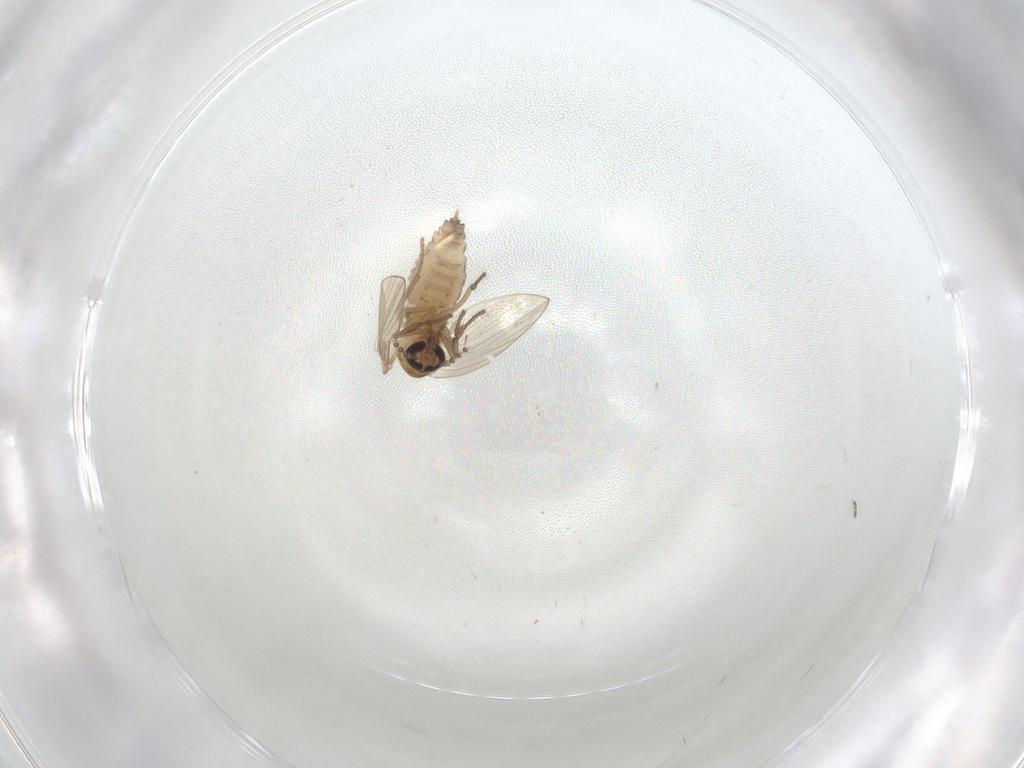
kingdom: Animalia
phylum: Arthropoda
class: Insecta
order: Diptera
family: Psychodidae
